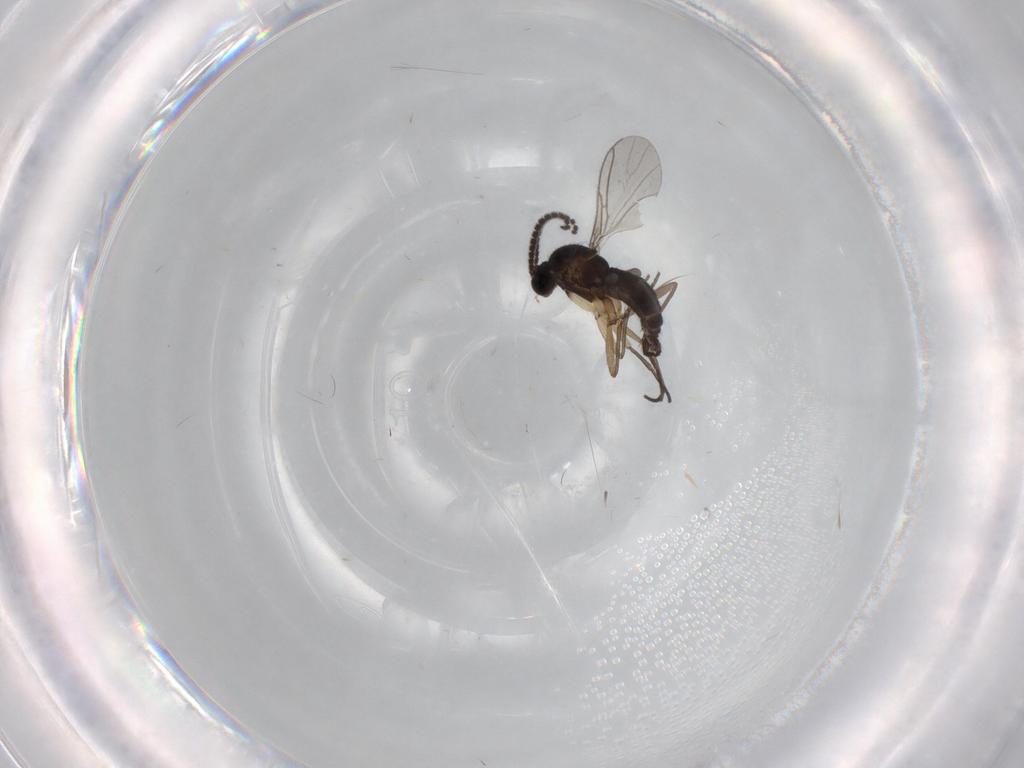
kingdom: Animalia
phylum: Arthropoda
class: Insecta
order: Diptera
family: Sciaridae
